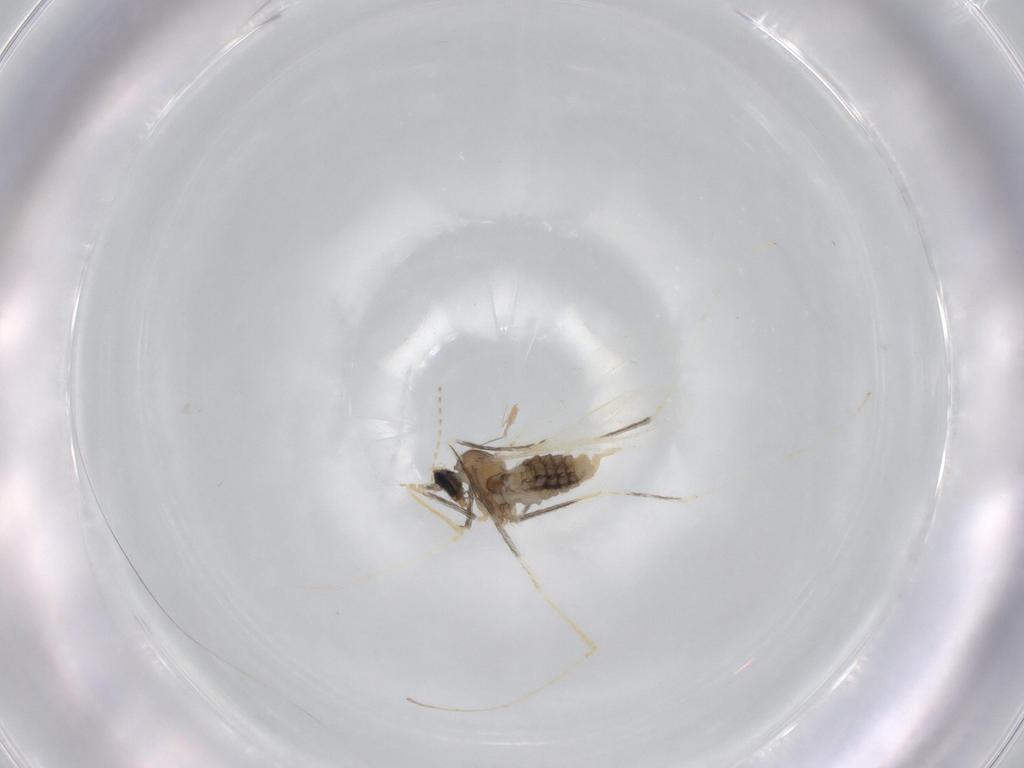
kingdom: Animalia
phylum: Arthropoda
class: Insecta
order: Diptera
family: Cecidomyiidae
